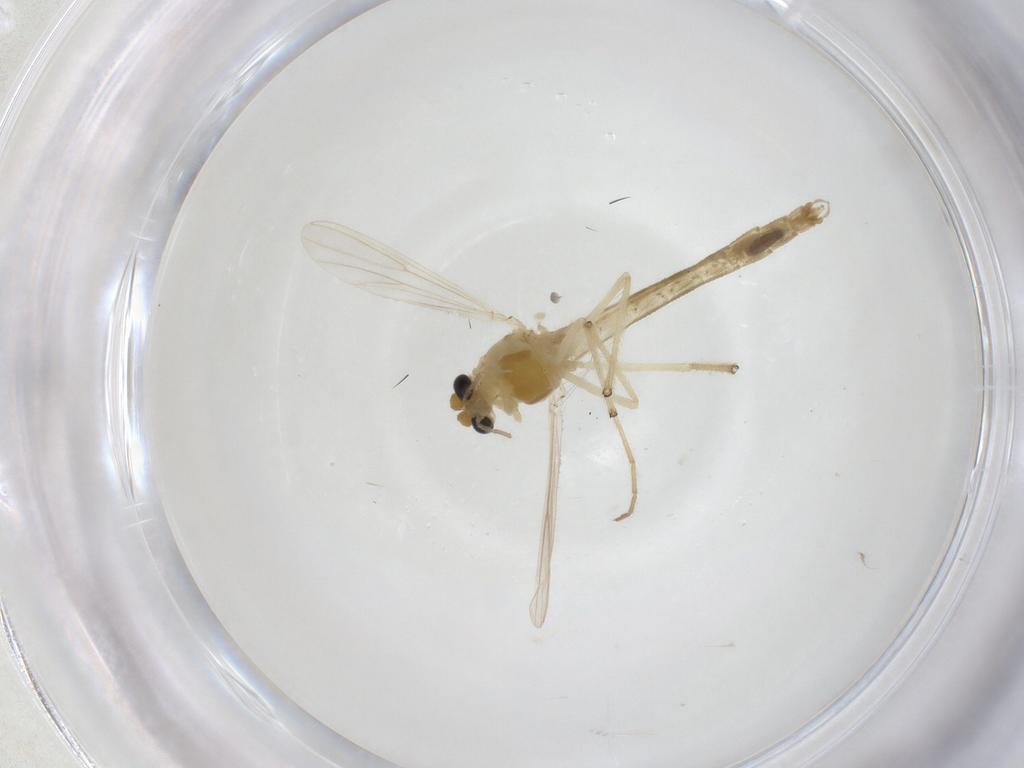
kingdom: Animalia
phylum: Arthropoda
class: Insecta
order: Diptera
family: Chironomidae
